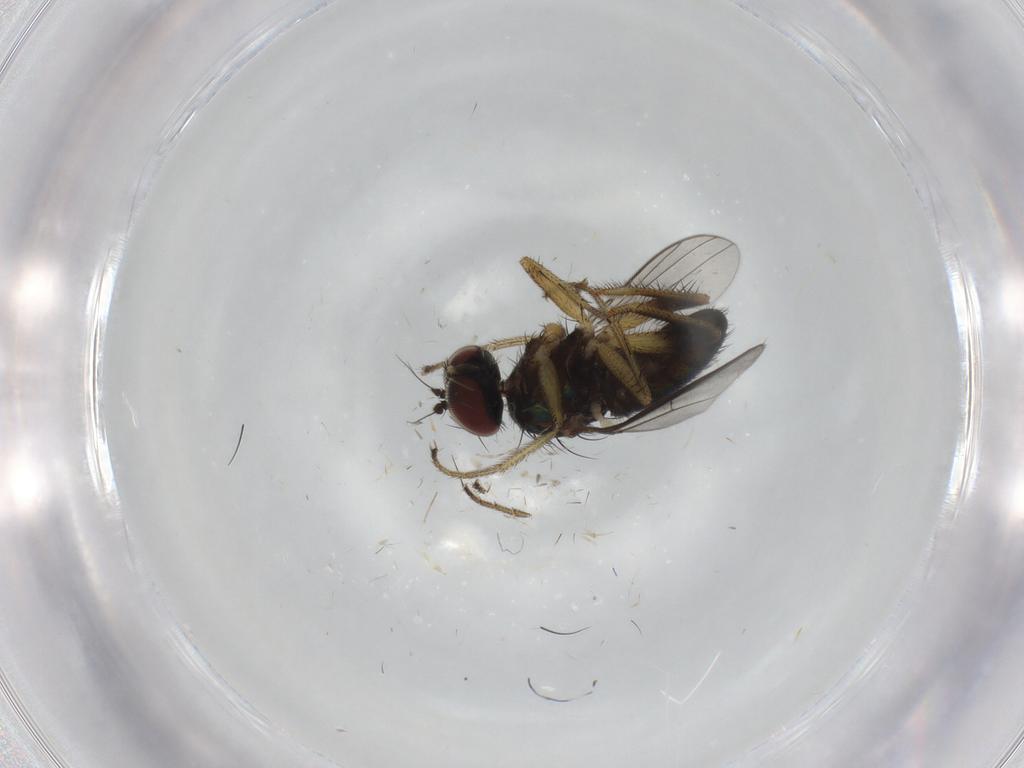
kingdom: Animalia
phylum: Arthropoda
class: Insecta
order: Diptera
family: Dolichopodidae
